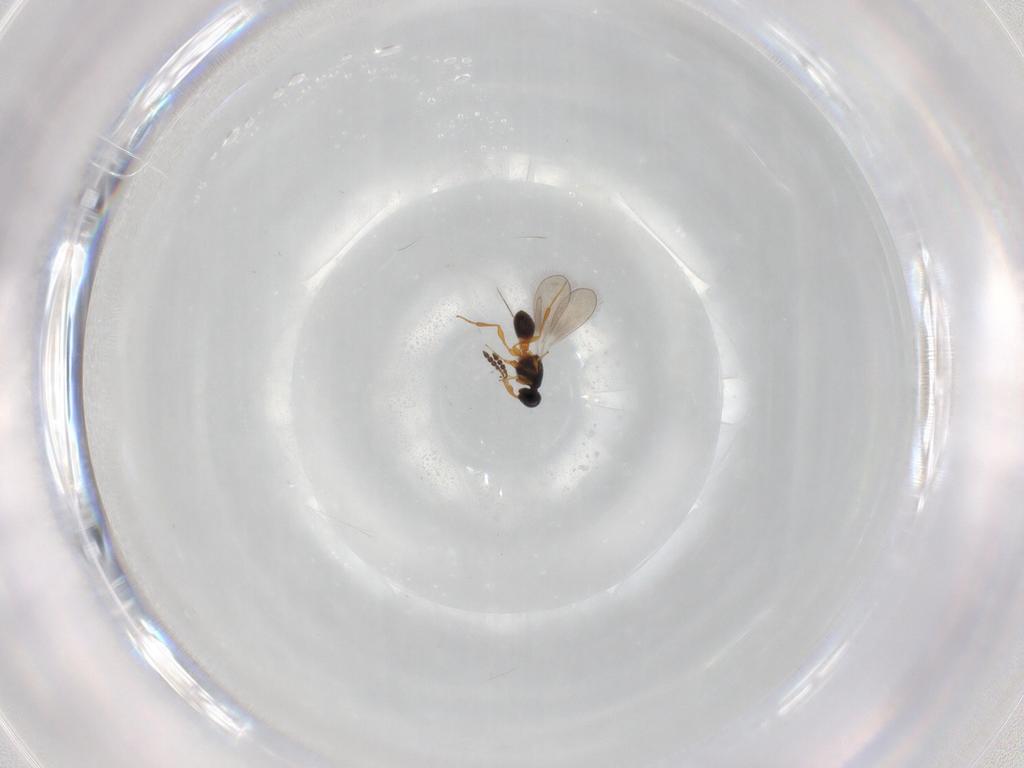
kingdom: Animalia
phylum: Arthropoda
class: Insecta
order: Hymenoptera
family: Platygastridae
